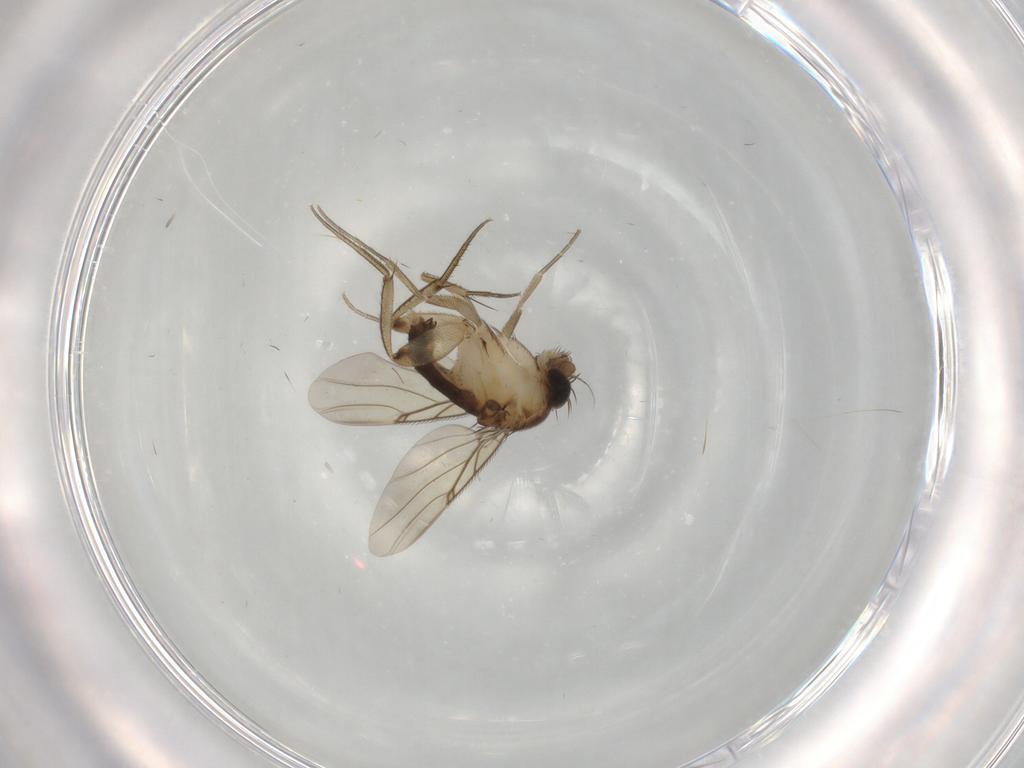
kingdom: Animalia
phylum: Arthropoda
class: Insecta
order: Diptera
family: Phoridae
